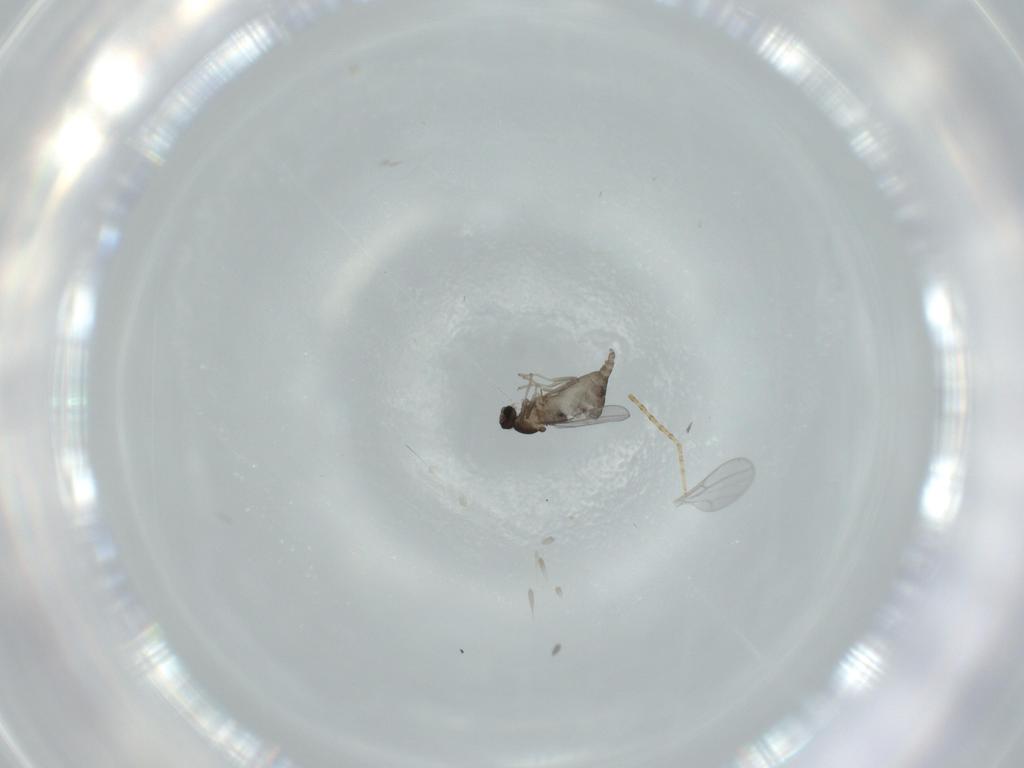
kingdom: Animalia
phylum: Arthropoda
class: Insecta
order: Diptera
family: Cecidomyiidae
